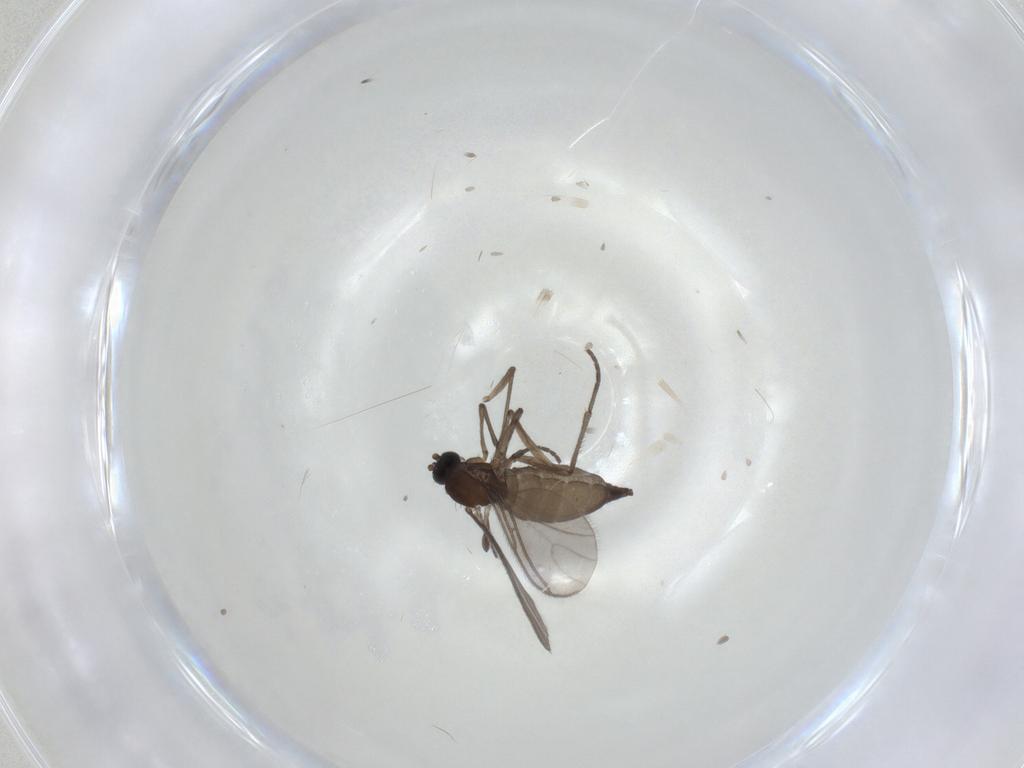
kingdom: Animalia
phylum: Arthropoda
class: Insecta
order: Diptera
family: Sciaridae
